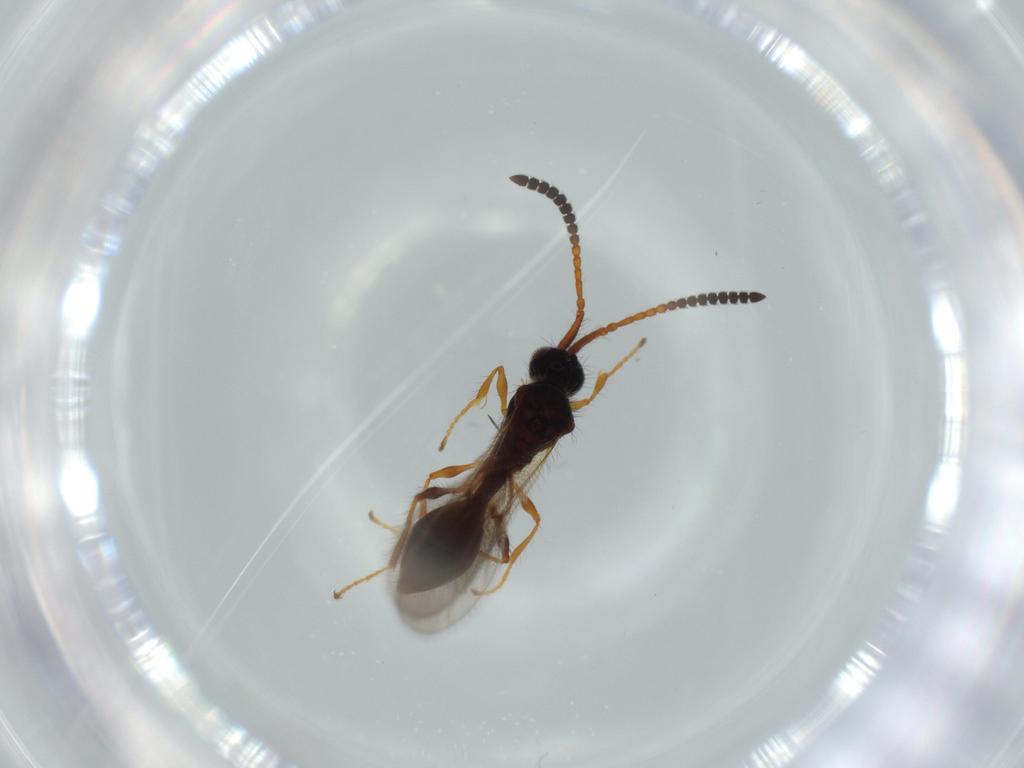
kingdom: Animalia
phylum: Arthropoda
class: Insecta
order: Hymenoptera
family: Diapriidae
